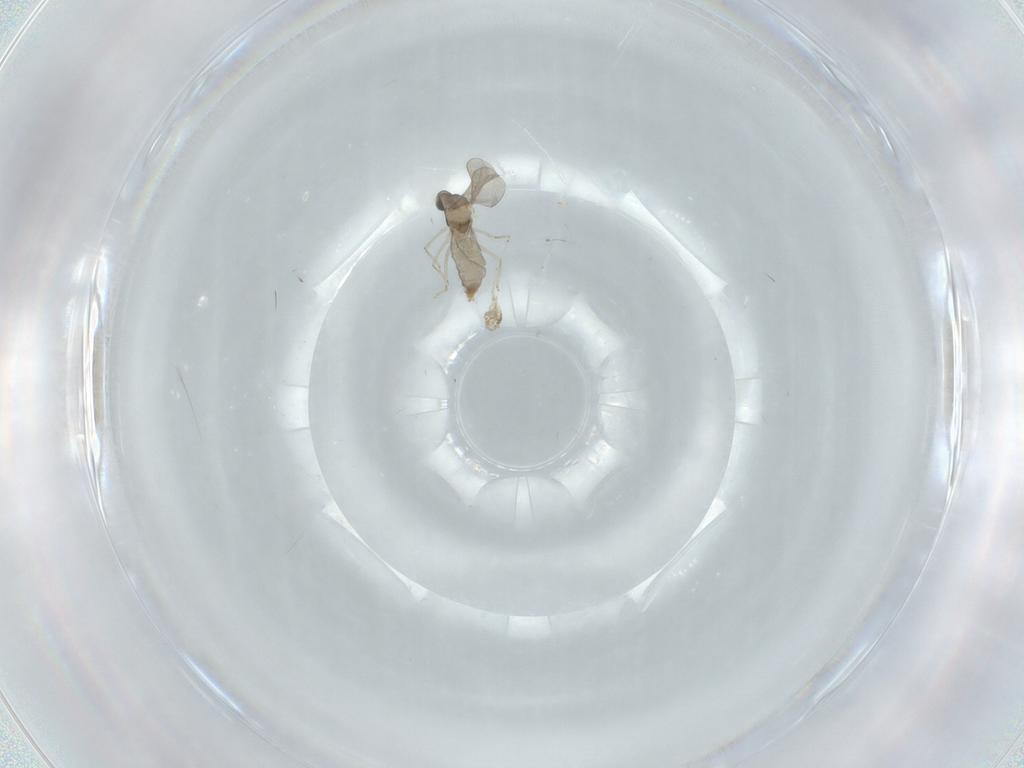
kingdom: Animalia
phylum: Arthropoda
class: Insecta
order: Diptera
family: Chironomidae
